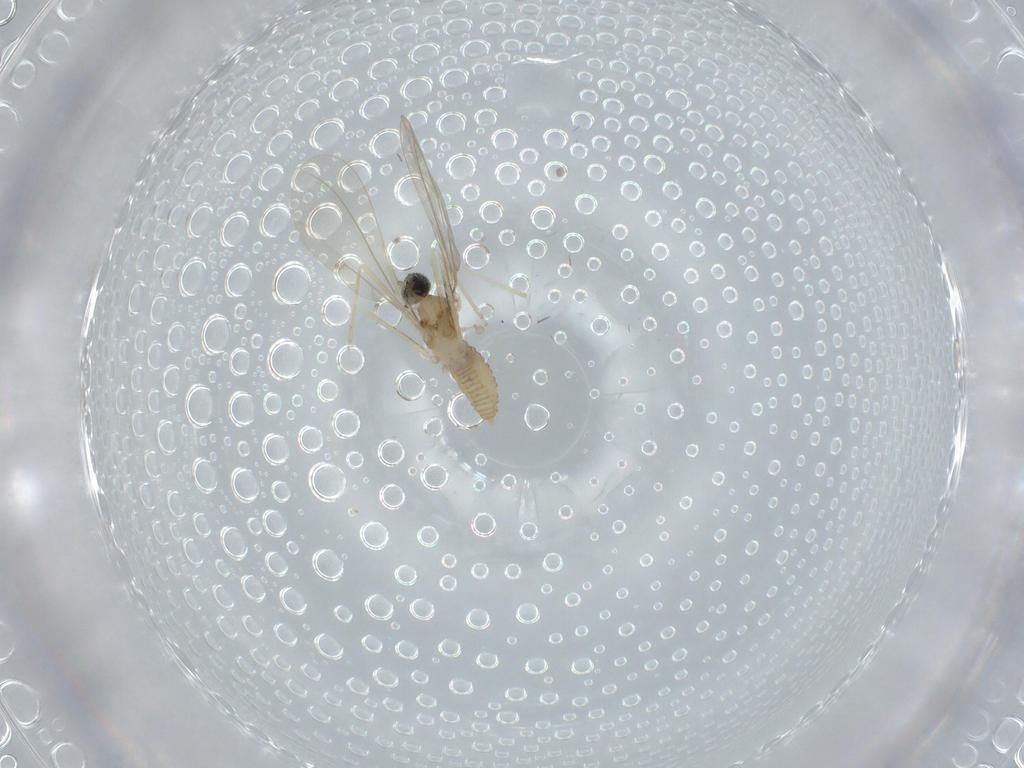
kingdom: Animalia
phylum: Arthropoda
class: Insecta
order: Diptera
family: Cecidomyiidae
